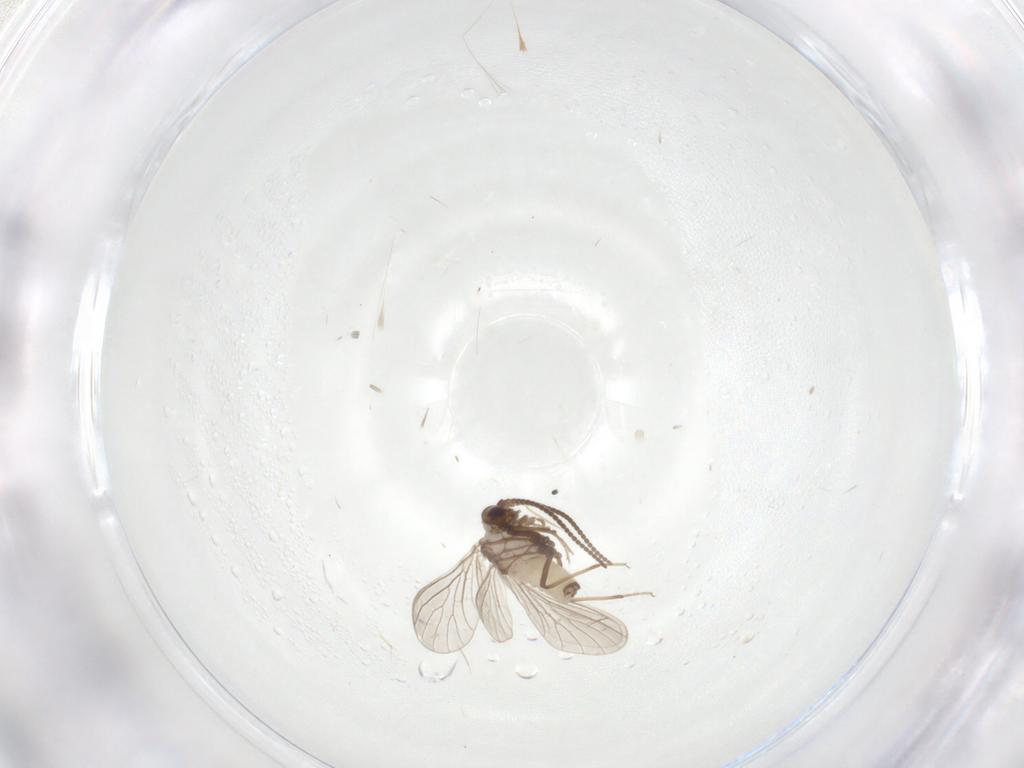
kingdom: Animalia
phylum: Arthropoda
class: Insecta
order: Neuroptera
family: Coniopterygidae
